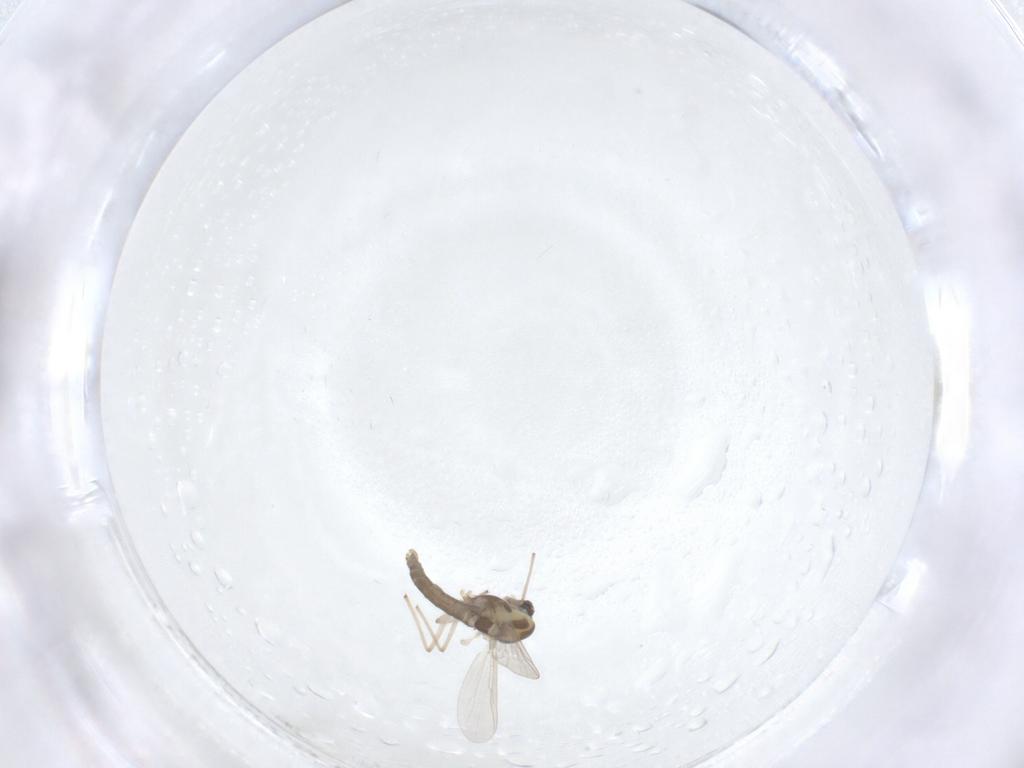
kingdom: Animalia
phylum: Arthropoda
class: Insecta
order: Diptera
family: Chironomidae
